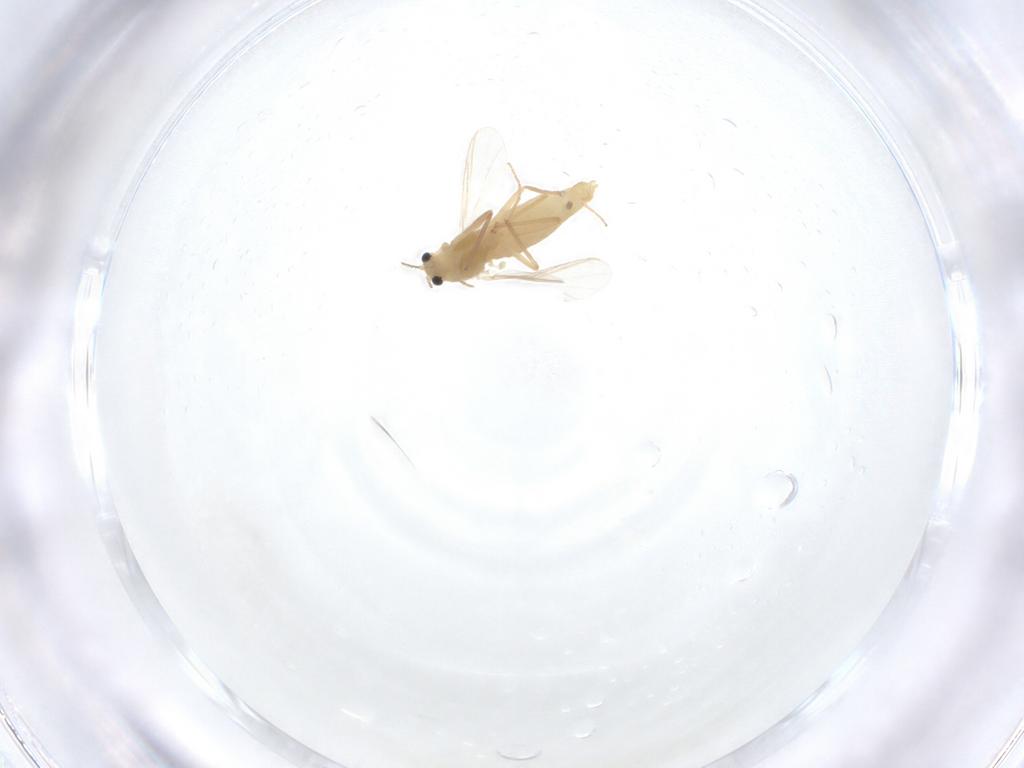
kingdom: Animalia
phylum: Arthropoda
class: Insecta
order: Diptera
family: Chironomidae
